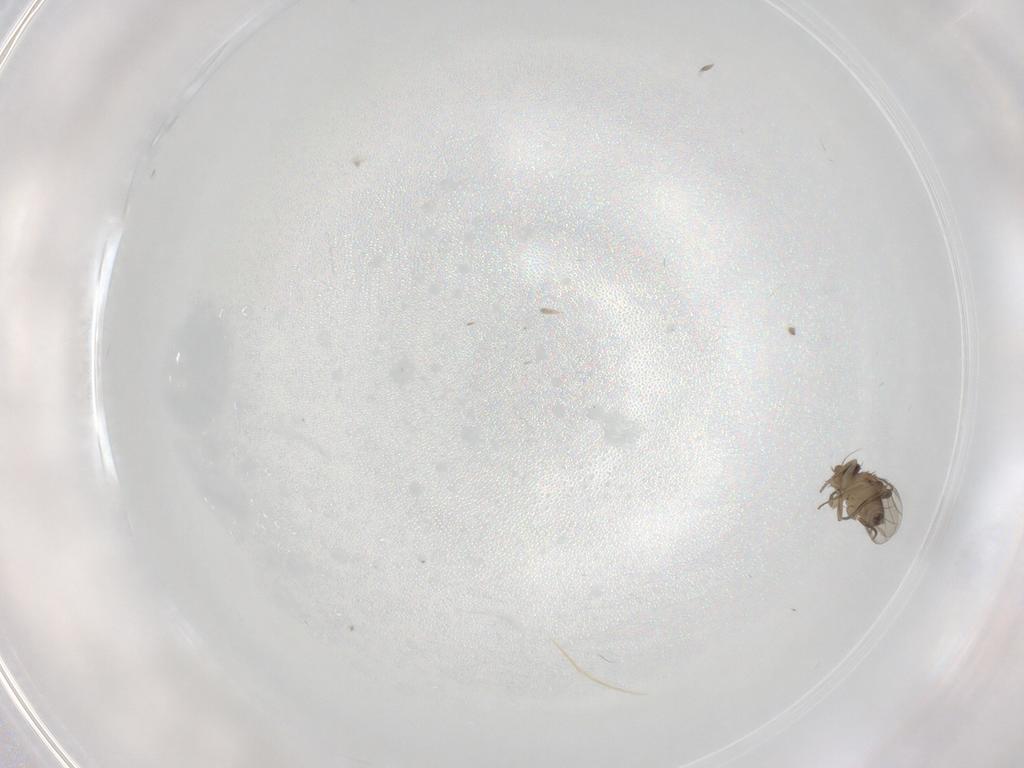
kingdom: Animalia
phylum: Arthropoda
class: Insecta
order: Diptera
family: Phoridae
